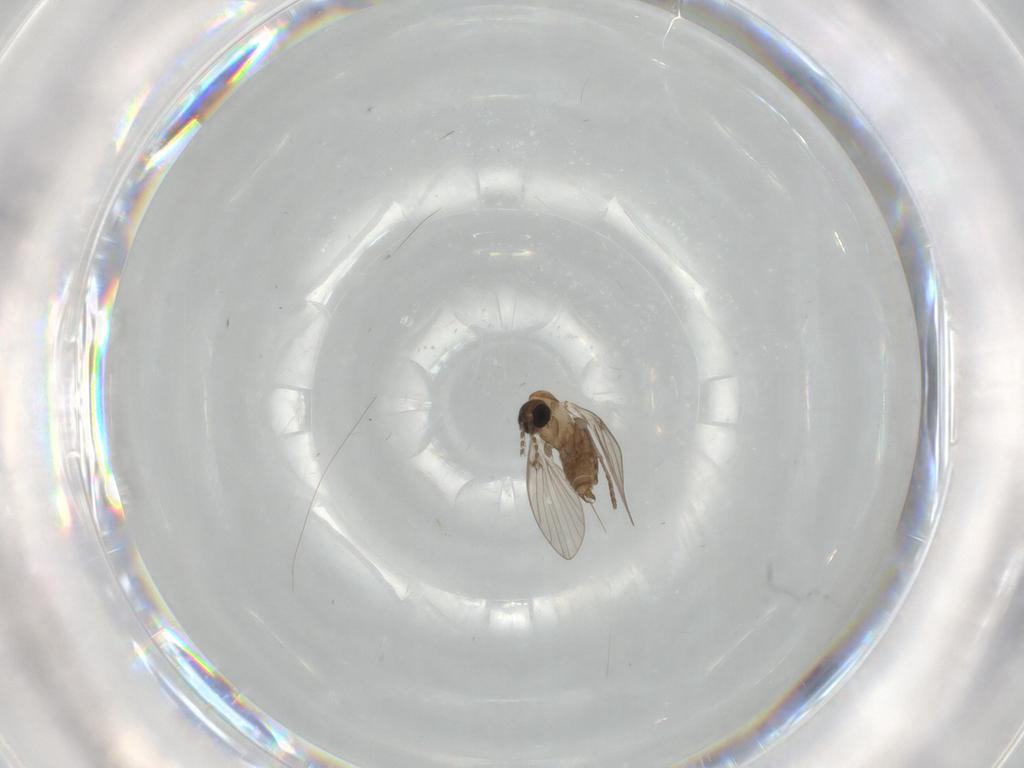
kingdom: Animalia
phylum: Arthropoda
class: Insecta
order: Diptera
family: Psychodidae
